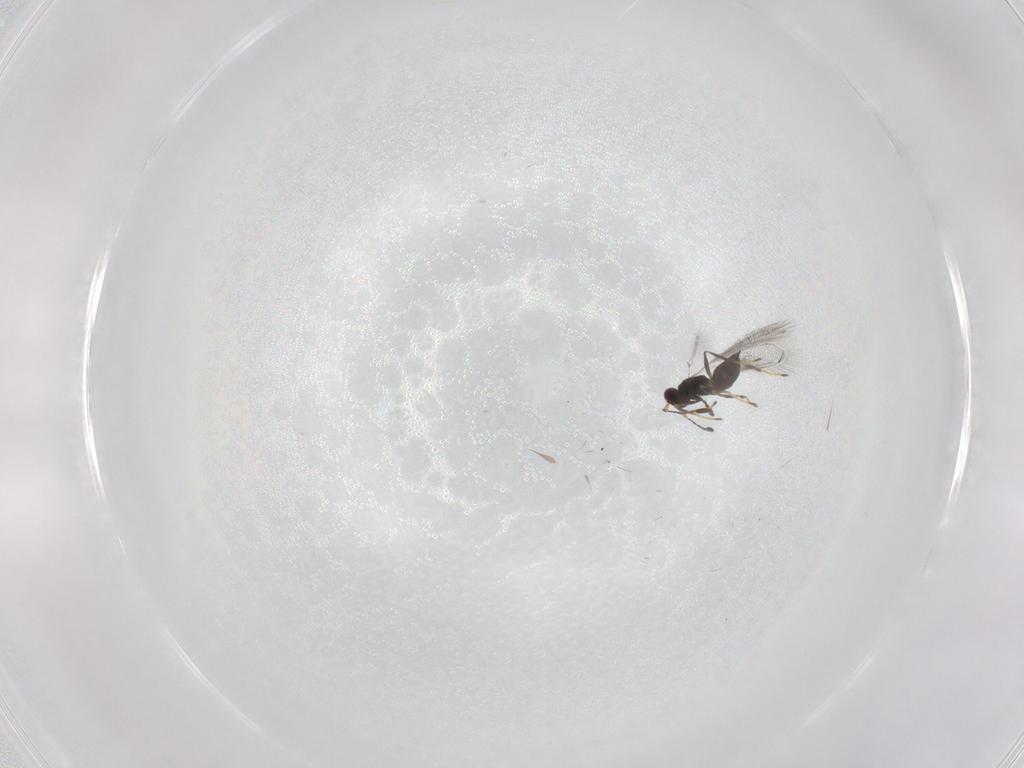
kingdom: Animalia
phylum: Arthropoda
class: Insecta
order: Hymenoptera
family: Mymaridae
